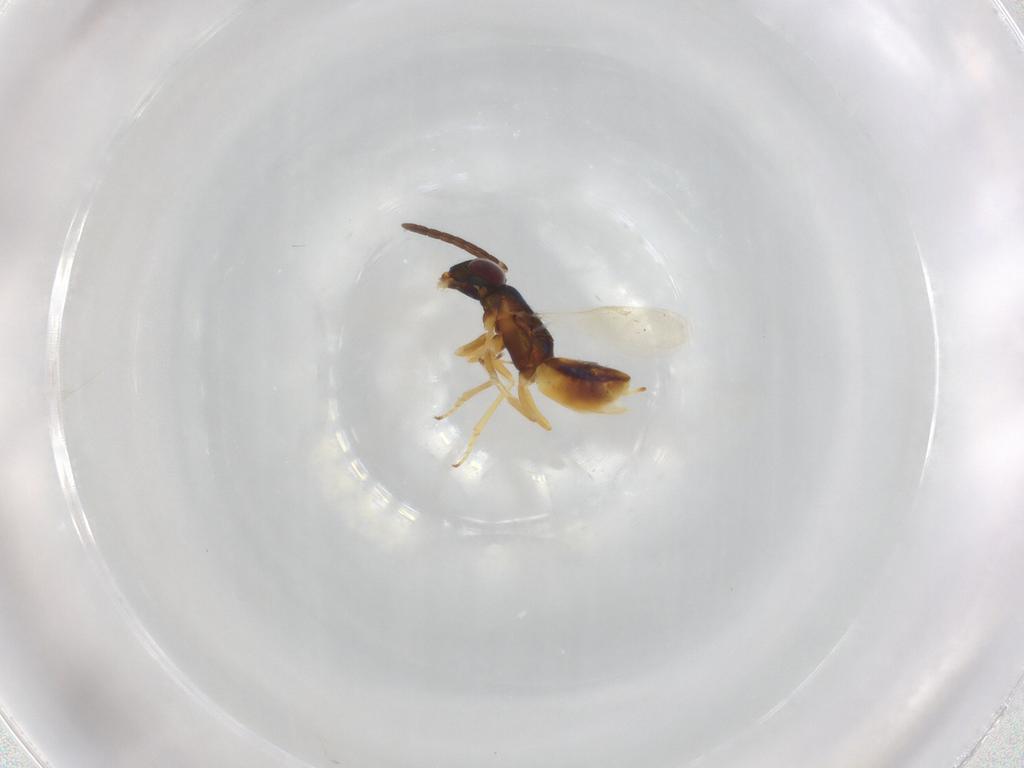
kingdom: Animalia
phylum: Arthropoda
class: Insecta
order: Hymenoptera
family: Encyrtidae
